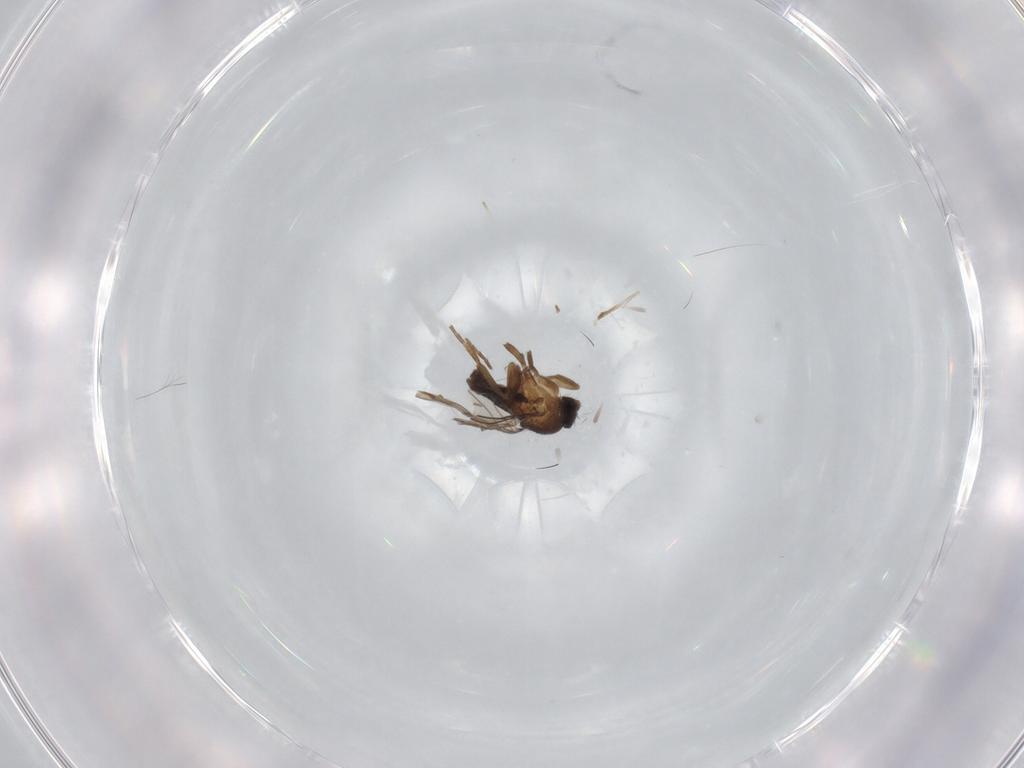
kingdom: Animalia
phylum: Arthropoda
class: Insecta
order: Diptera
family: Phoridae
